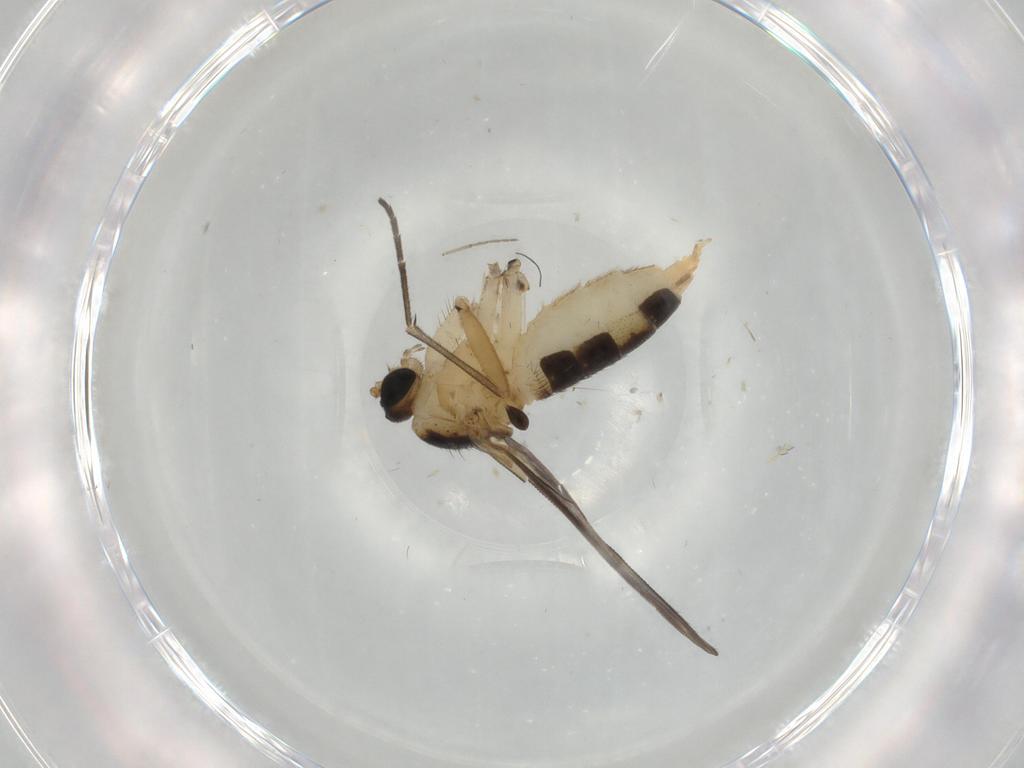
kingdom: Animalia
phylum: Arthropoda
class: Insecta
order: Diptera
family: Sciaridae
